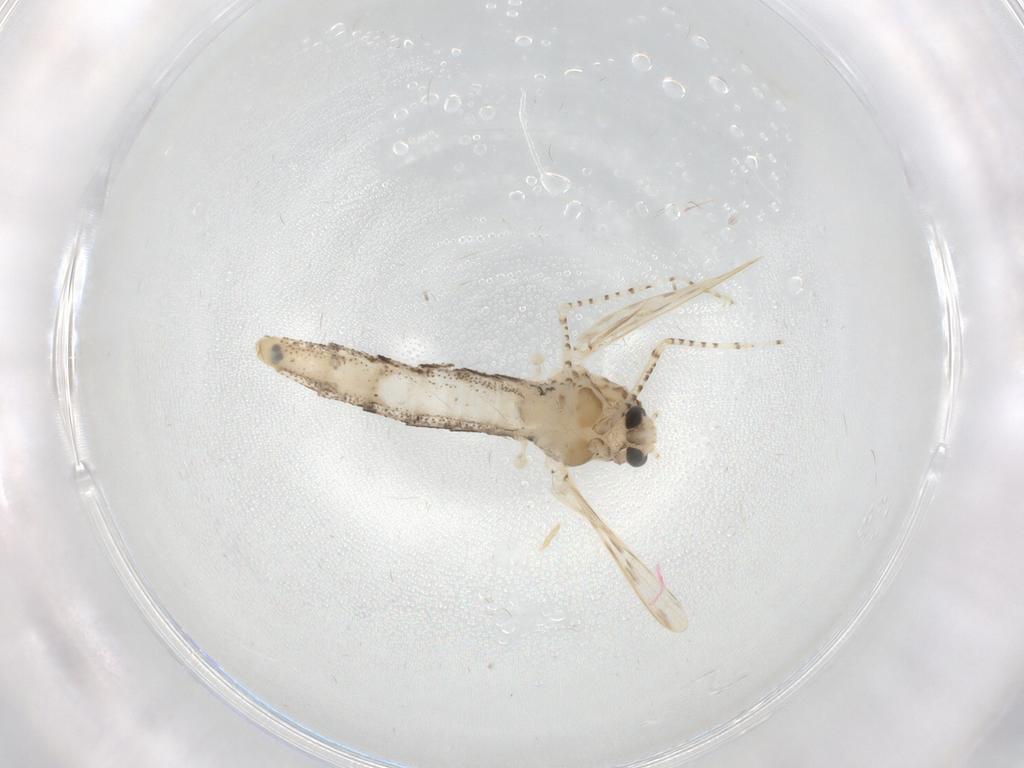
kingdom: Animalia
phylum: Arthropoda
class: Insecta
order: Diptera
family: Chaoboridae
